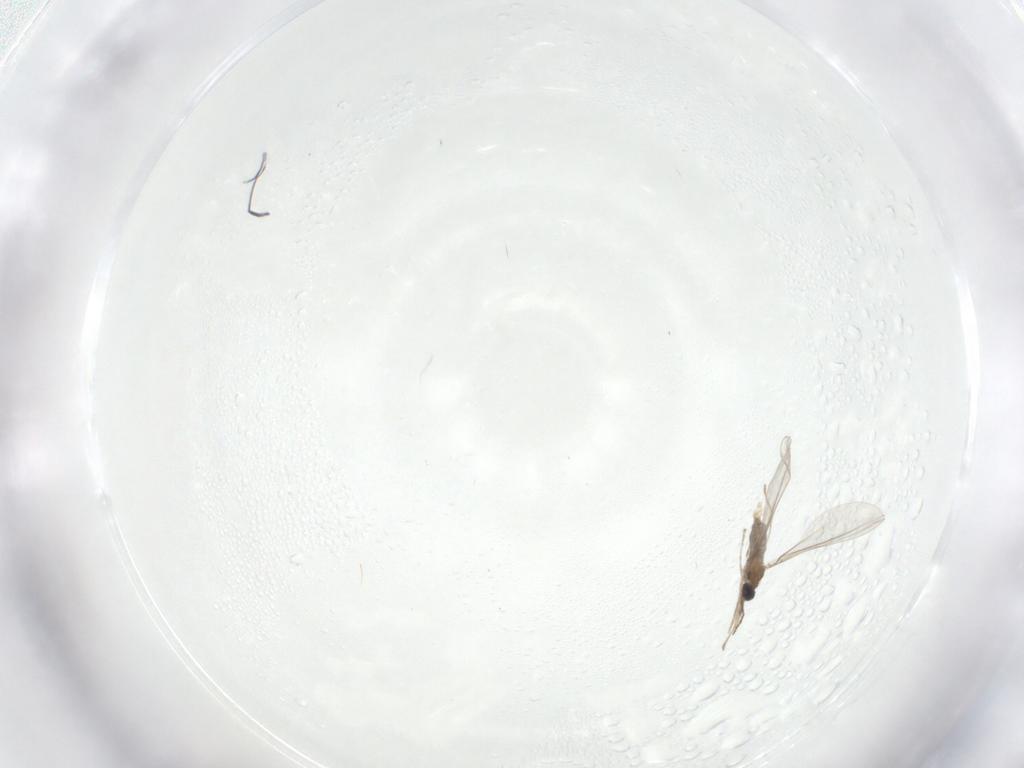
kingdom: Animalia
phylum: Arthropoda
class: Insecta
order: Diptera
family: Cecidomyiidae
